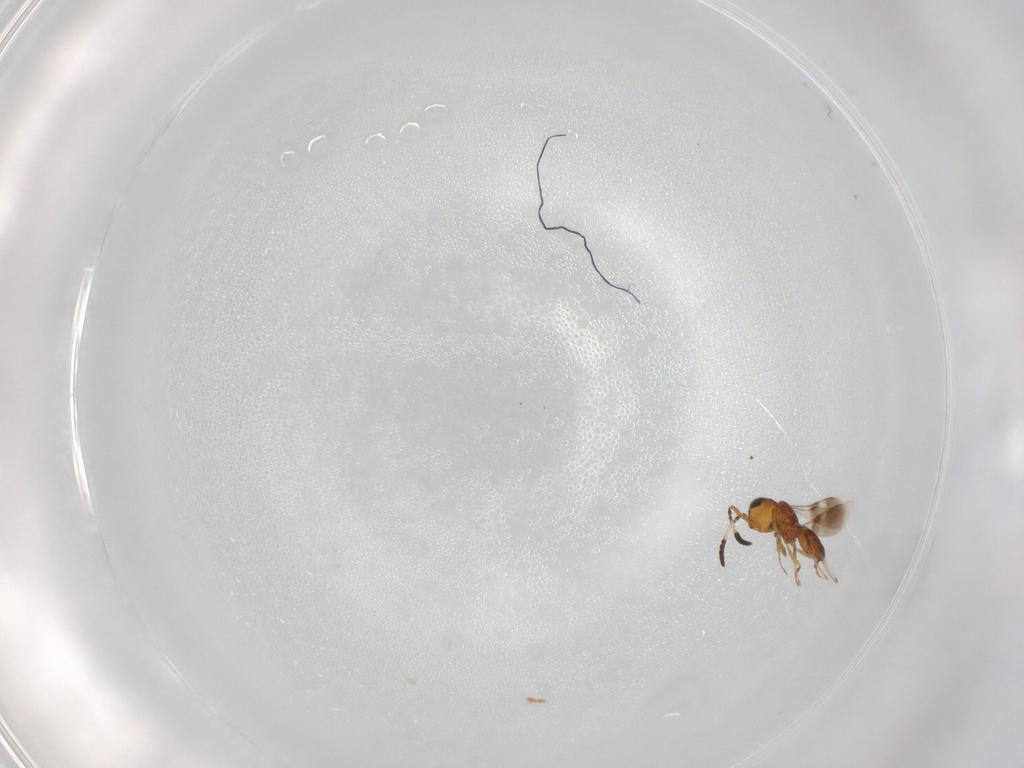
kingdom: Animalia
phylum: Arthropoda
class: Insecta
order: Hymenoptera
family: Scelionidae
